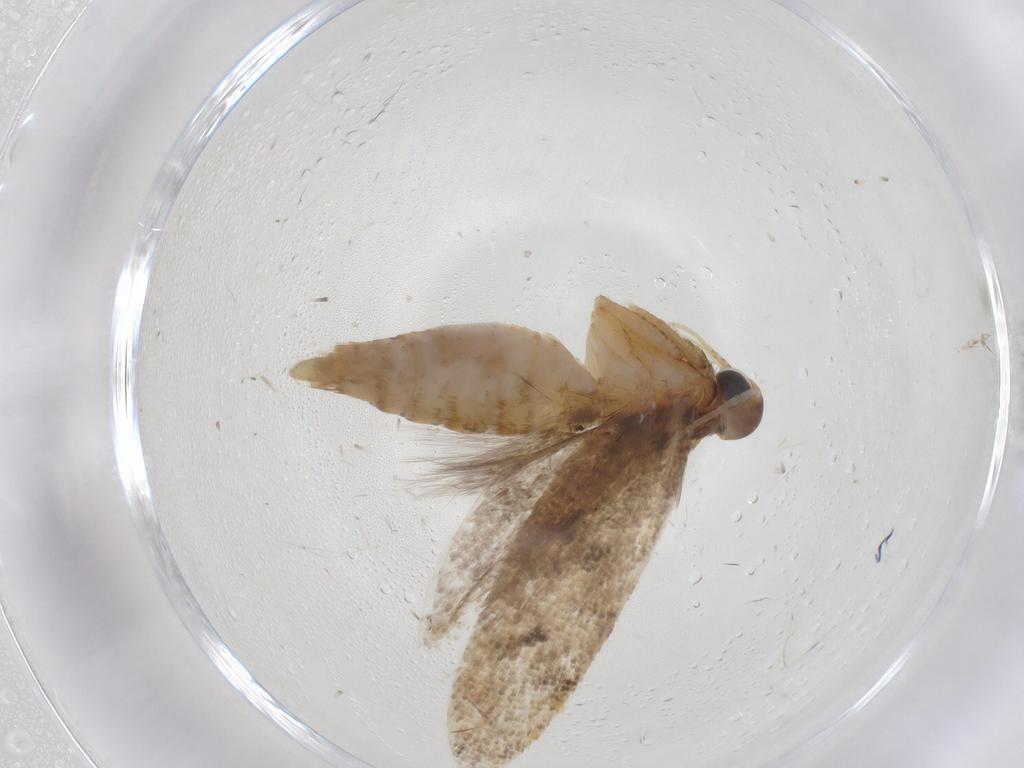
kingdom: Animalia
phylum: Arthropoda
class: Insecta
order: Lepidoptera
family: Oecophoridae
